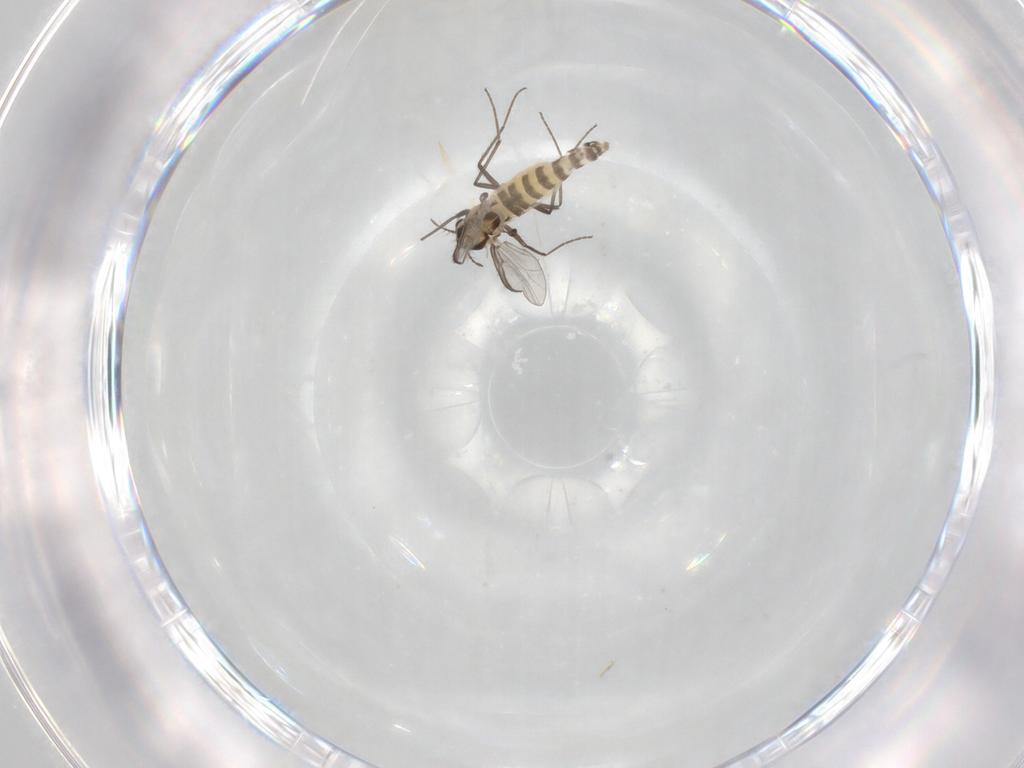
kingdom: Animalia
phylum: Arthropoda
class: Insecta
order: Diptera
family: Chironomidae
